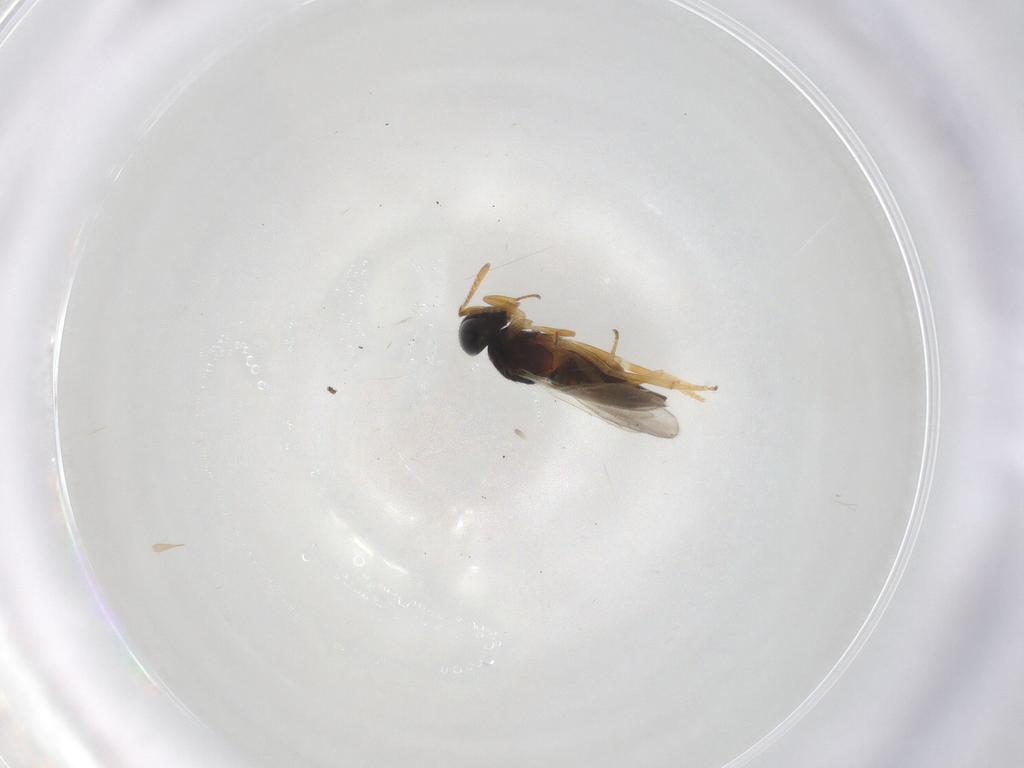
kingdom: Animalia
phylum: Arthropoda
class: Insecta
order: Hymenoptera
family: Encyrtidae
